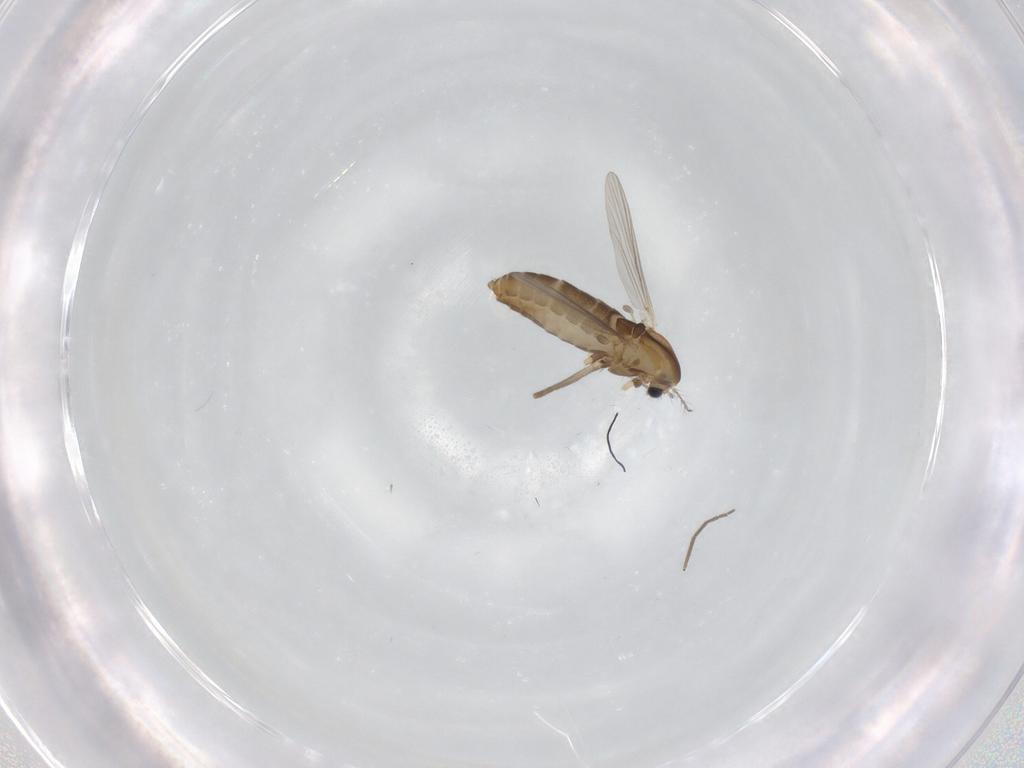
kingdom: Animalia
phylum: Arthropoda
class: Insecta
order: Diptera
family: Chironomidae
